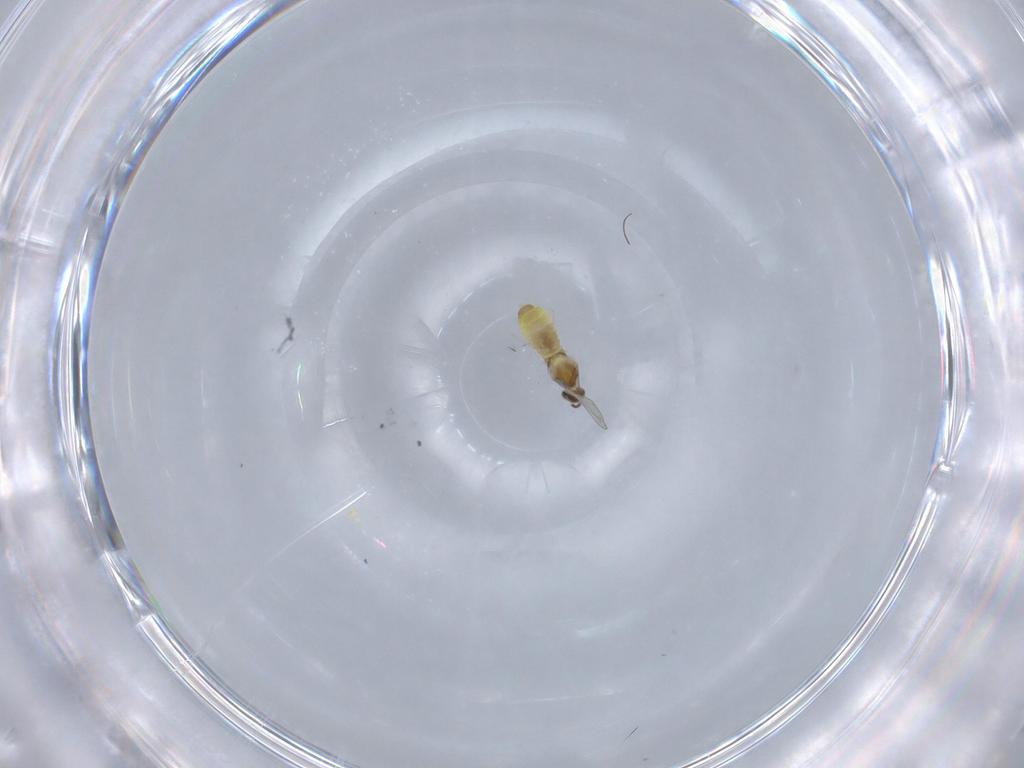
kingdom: Animalia
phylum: Arthropoda
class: Insecta
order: Diptera
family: Cecidomyiidae
